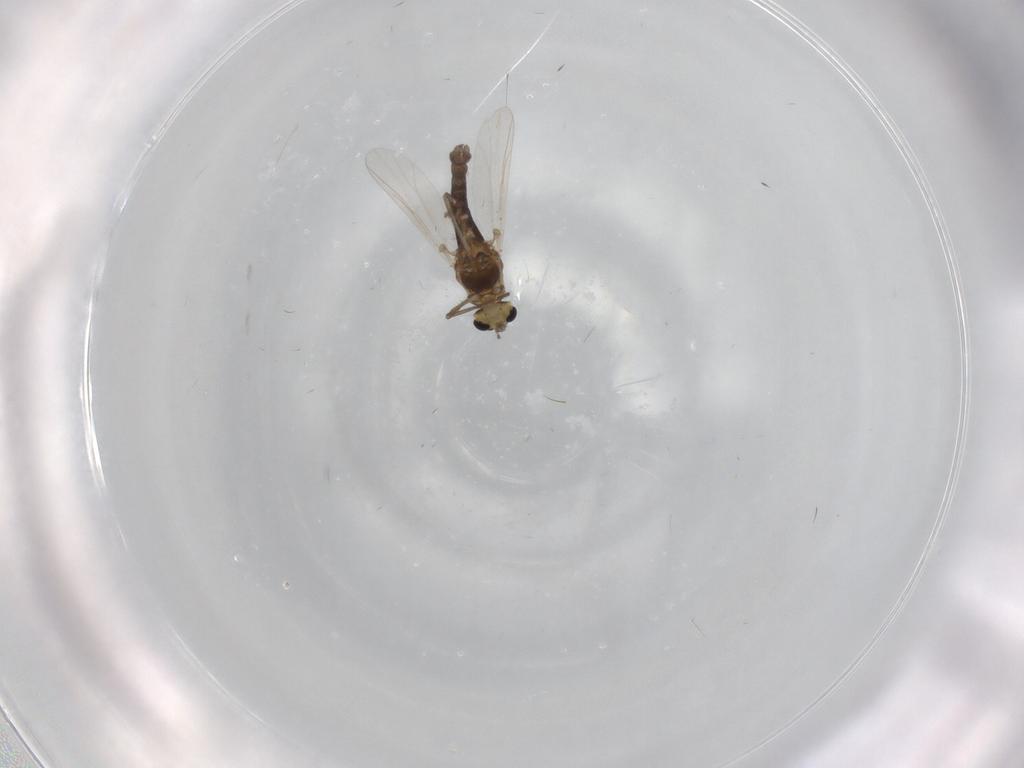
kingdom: Animalia
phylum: Arthropoda
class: Insecta
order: Diptera
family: Chironomidae
